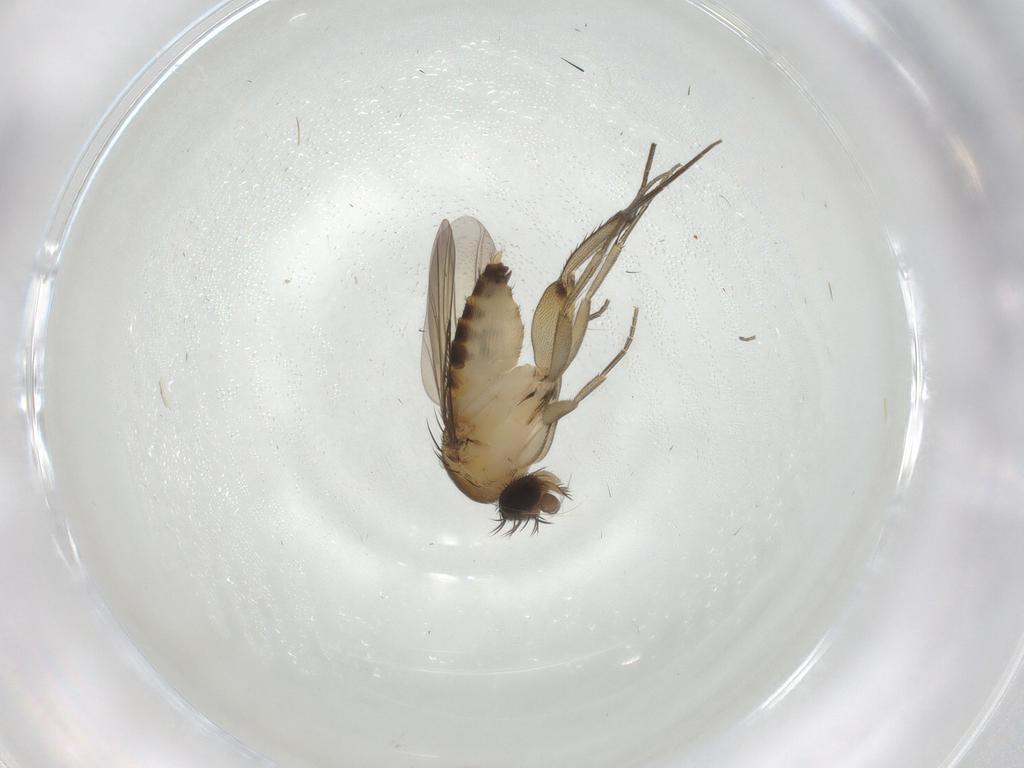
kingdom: Animalia
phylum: Arthropoda
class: Insecta
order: Diptera
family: Phoridae
